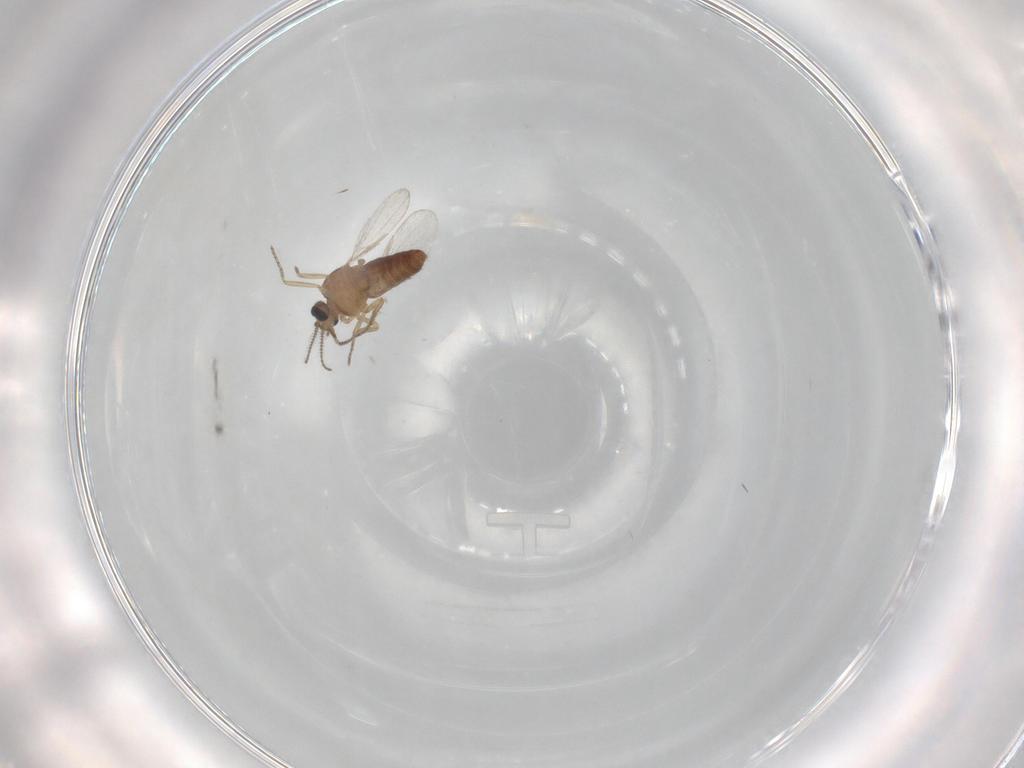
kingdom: Animalia
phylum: Arthropoda
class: Insecta
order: Diptera
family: Ceratopogonidae
